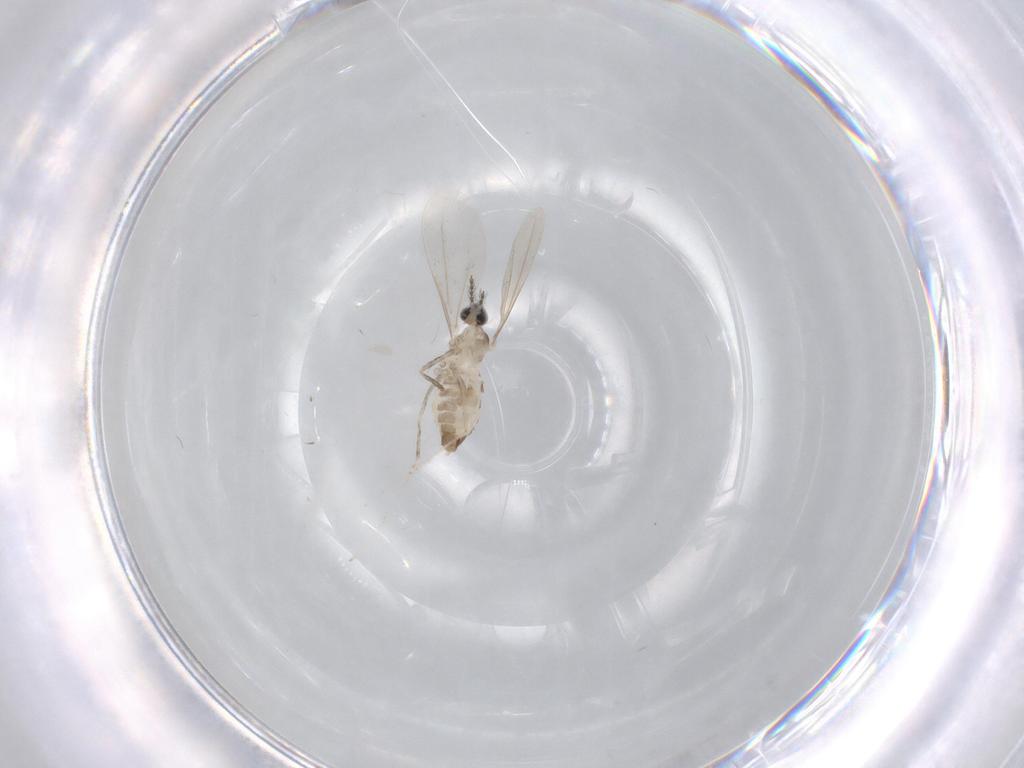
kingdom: Animalia
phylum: Arthropoda
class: Insecta
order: Diptera
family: Cecidomyiidae
